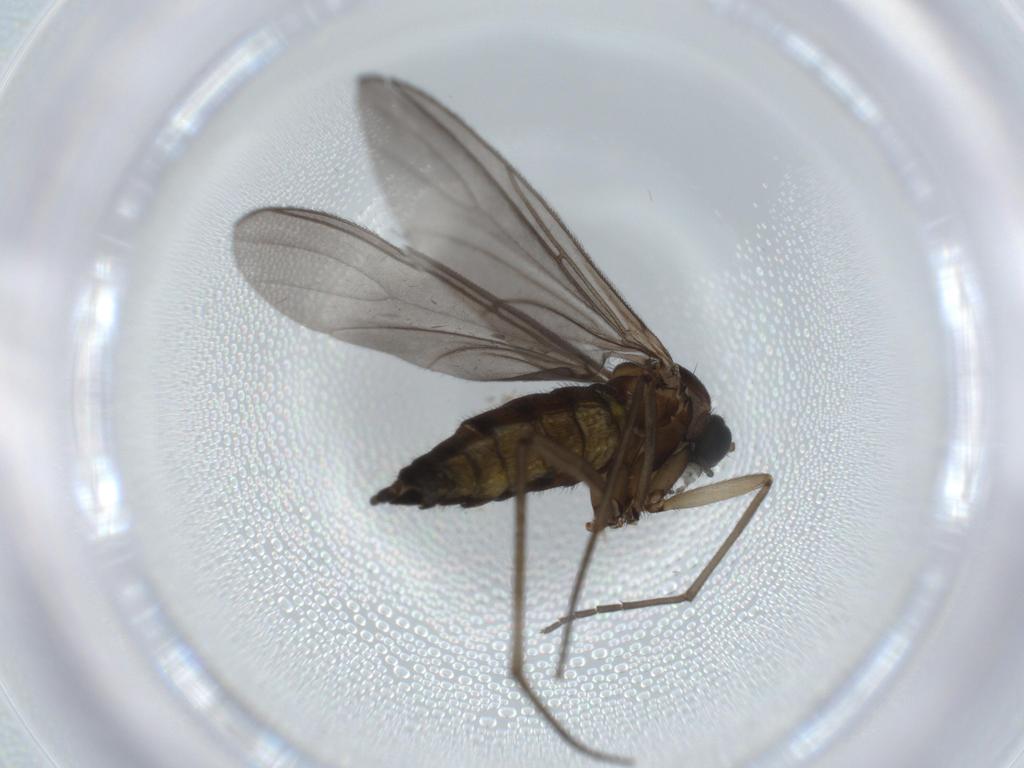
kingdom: Animalia
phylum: Arthropoda
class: Insecta
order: Diptera
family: Sciaridae
